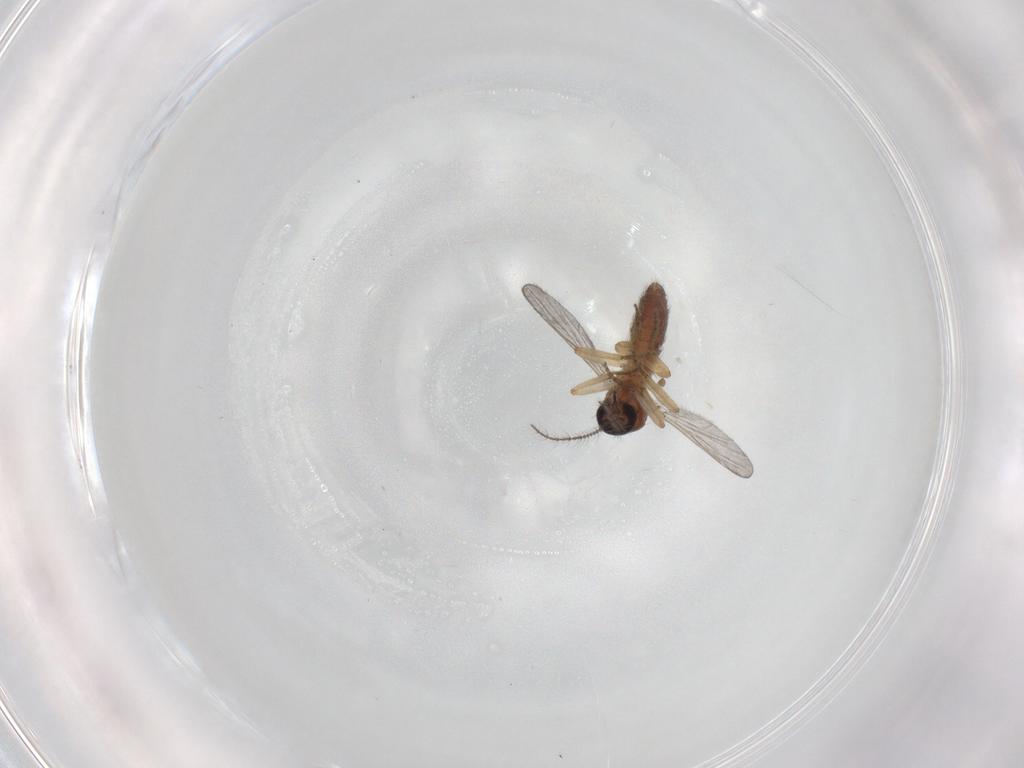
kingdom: Animalia
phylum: Arthropoda
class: Insecta
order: Diptera
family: Ceratopogonidae
